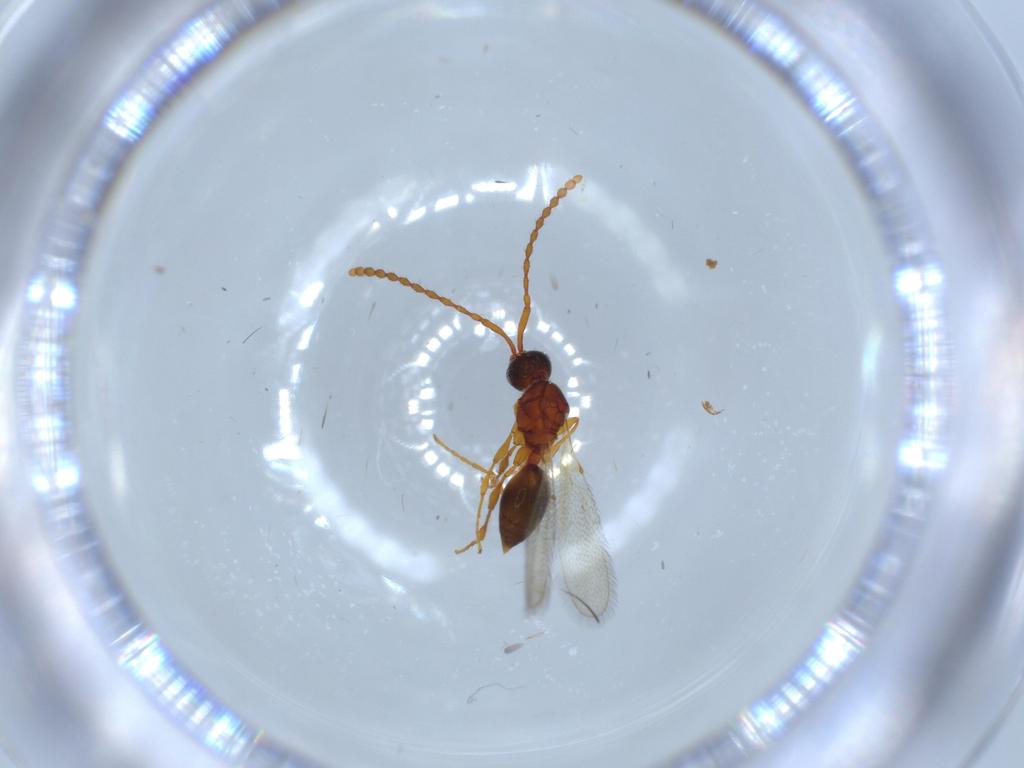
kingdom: Animalia
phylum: Arthropoda
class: Insecta
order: Hymenoptera
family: Diapriidae
